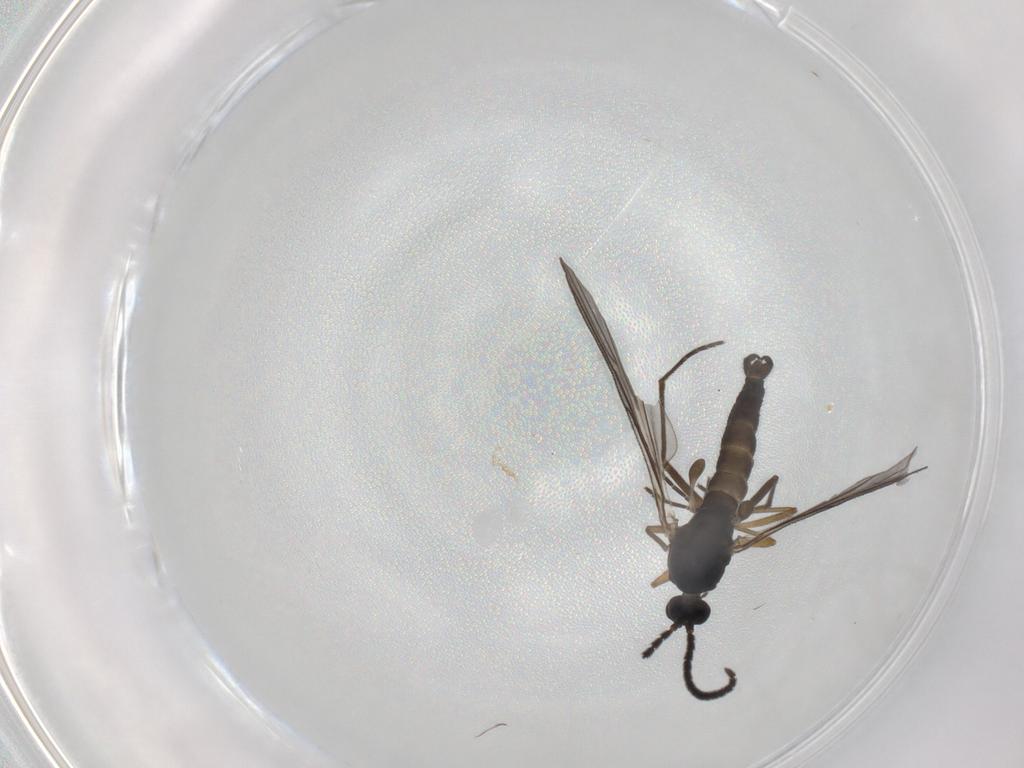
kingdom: Animalia
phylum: Arthropoda
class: Insecta
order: Diptera
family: Sciaridae
